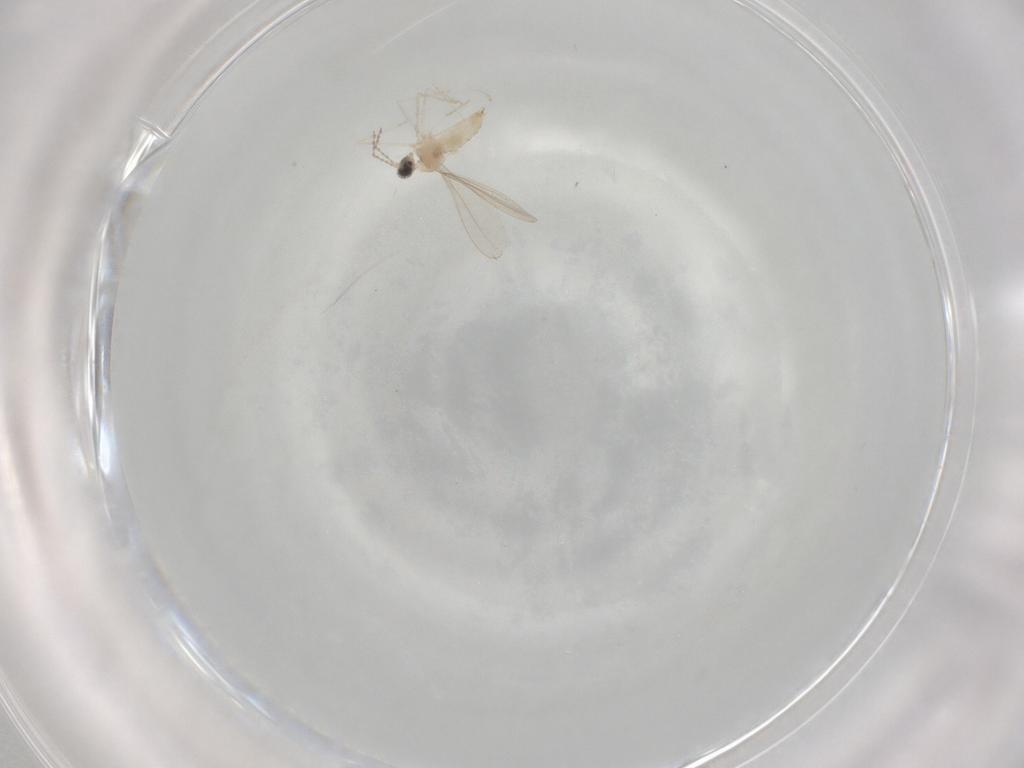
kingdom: Animalia
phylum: Arthropoda
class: Insecta
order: Diptera
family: Cecidomyiidae
